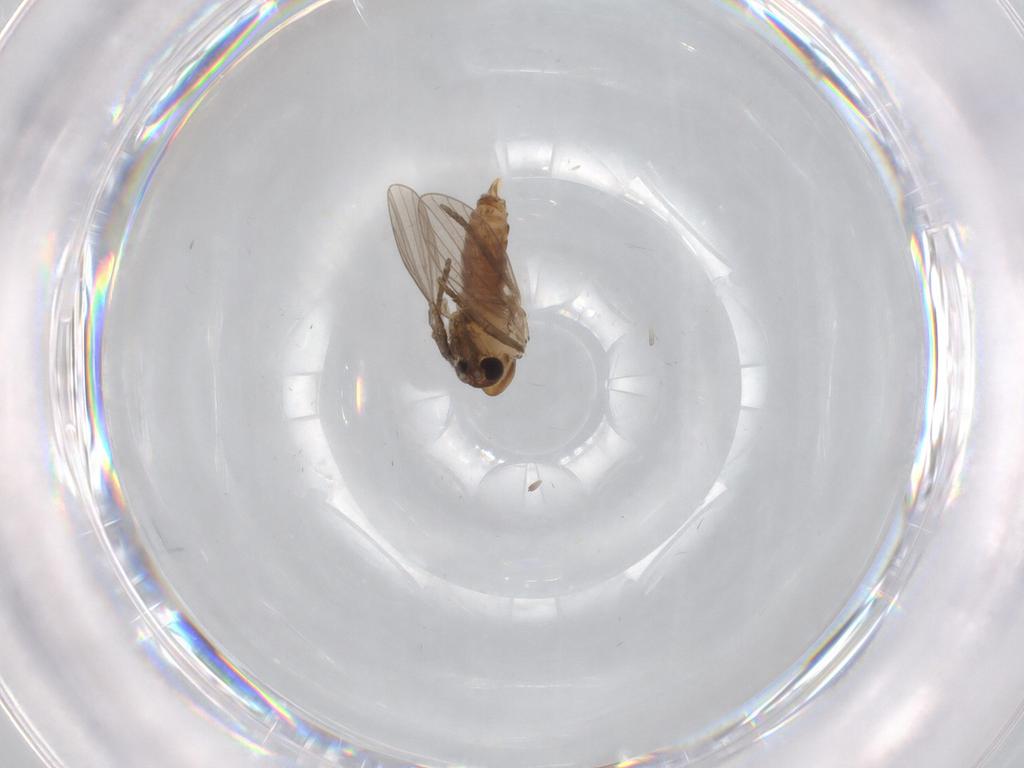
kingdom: Animalia
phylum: Arthropoda
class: Insecta
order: Diptera
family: Psychodidae
